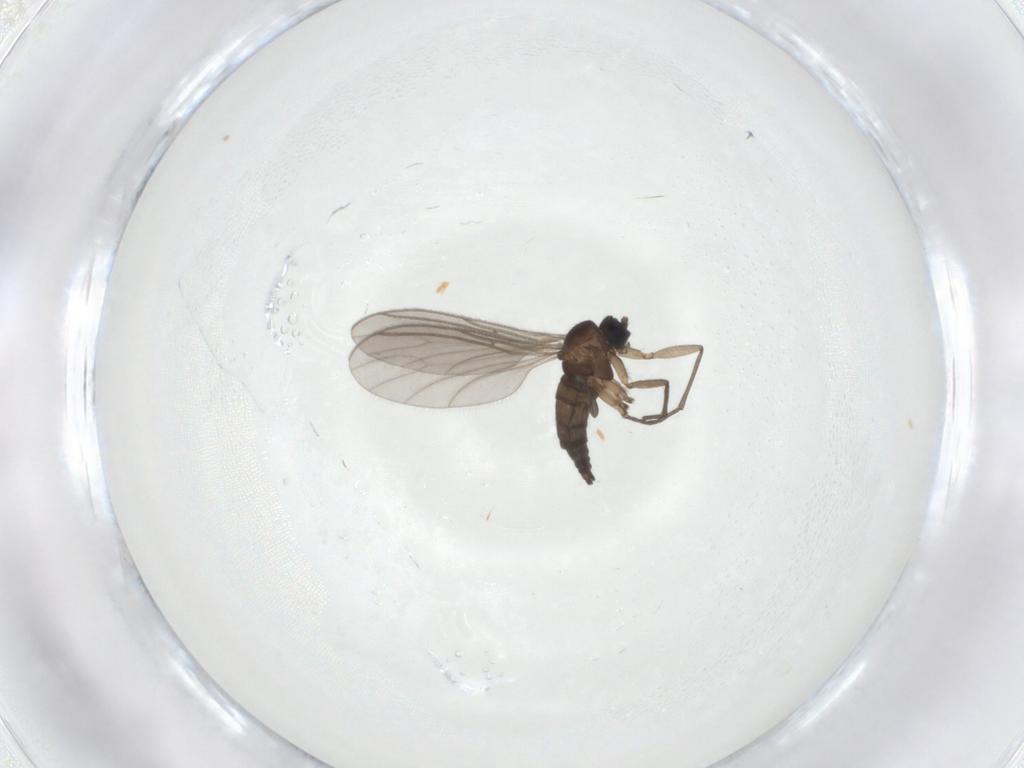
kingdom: Animalia
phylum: Arthropoda
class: Insecta
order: Diptera
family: Sciaridae
